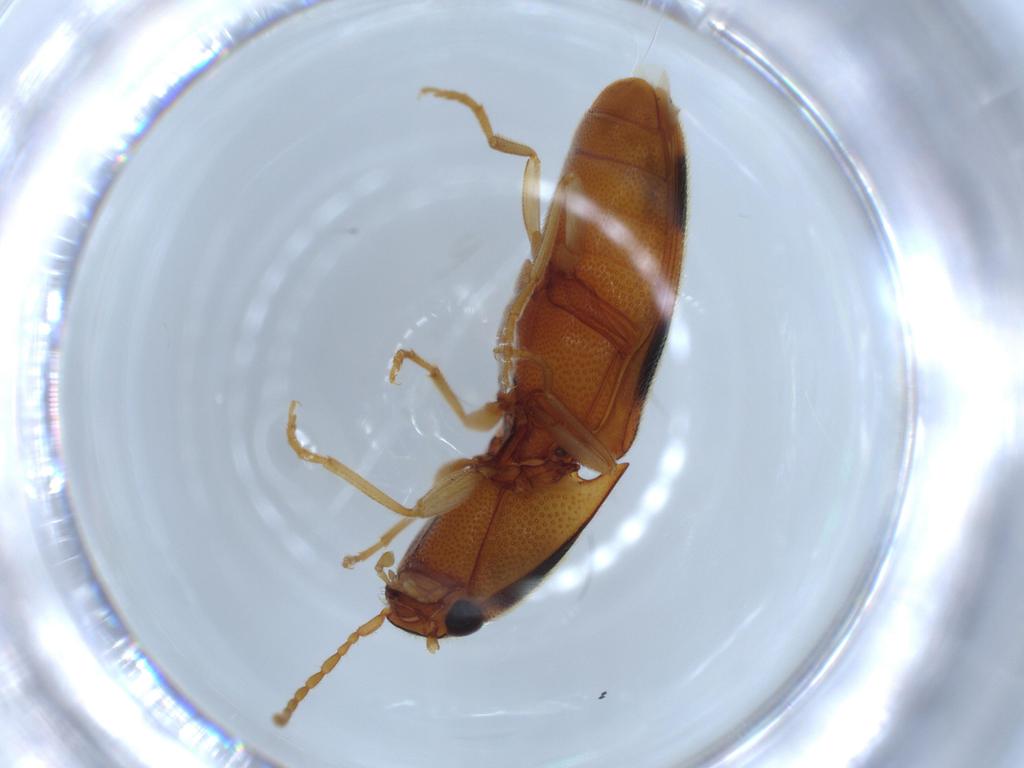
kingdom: Animalia
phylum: Arthropoda
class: Insecta
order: Coleoptera
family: Elateridae
